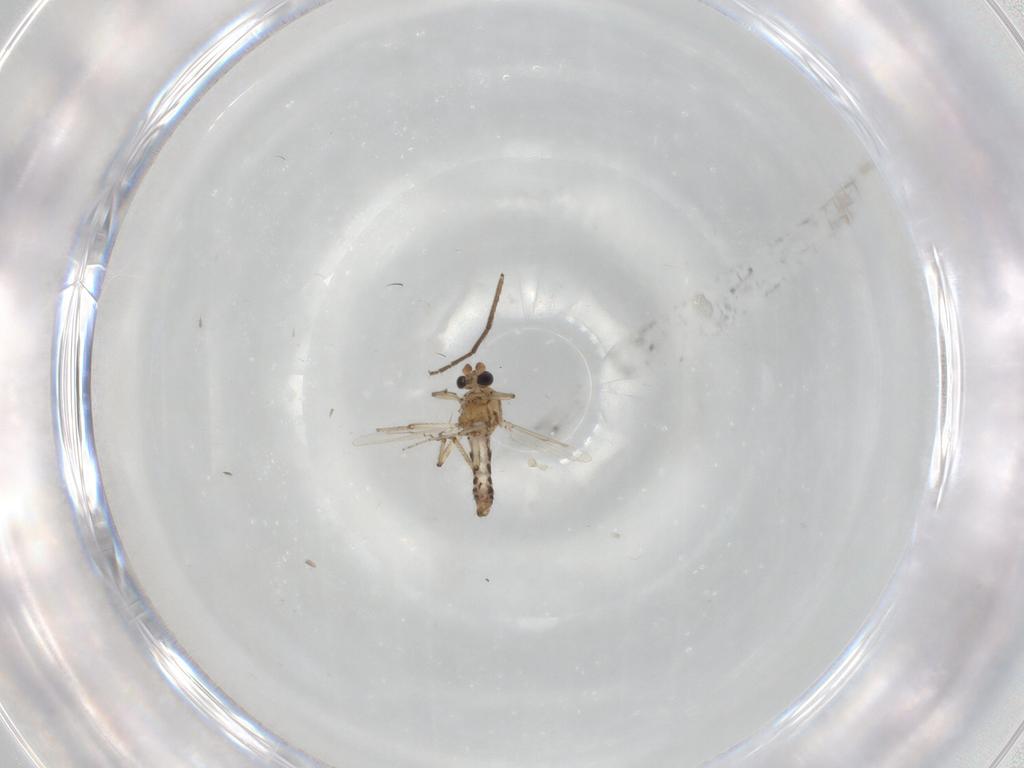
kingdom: Animalia
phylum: Arthropoda
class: Insecta
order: Diptera
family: Ceratopogonidae
